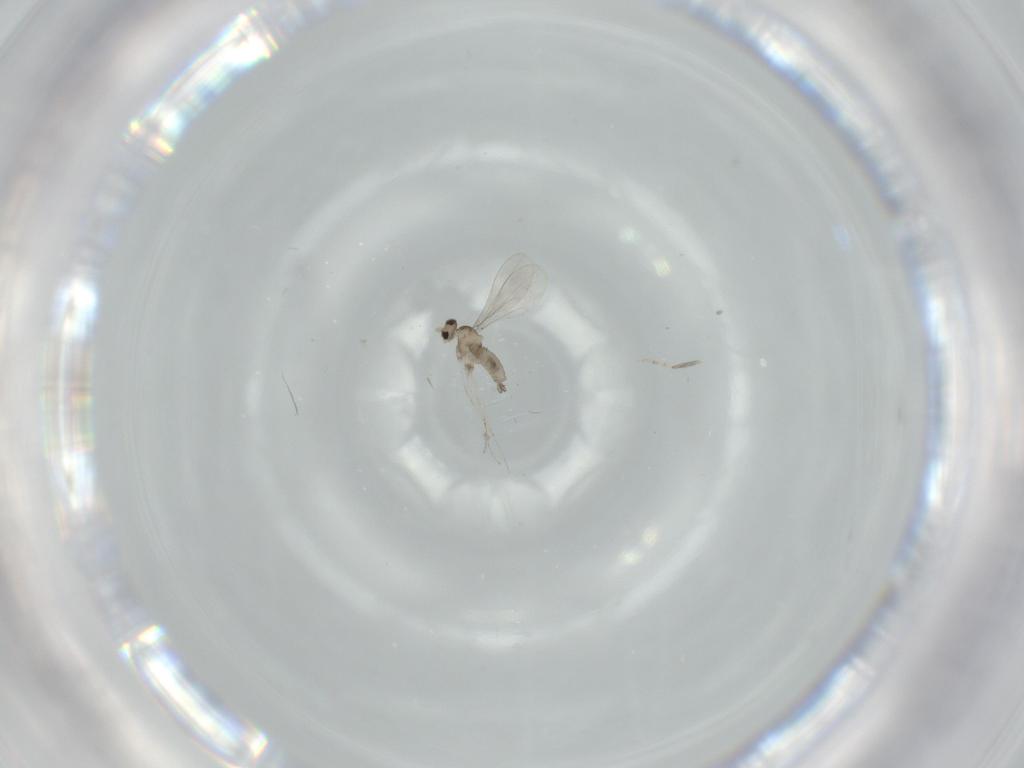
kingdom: Animalia
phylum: Arthropoda
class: Insecta
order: Diptera
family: Cecidomyiidae
